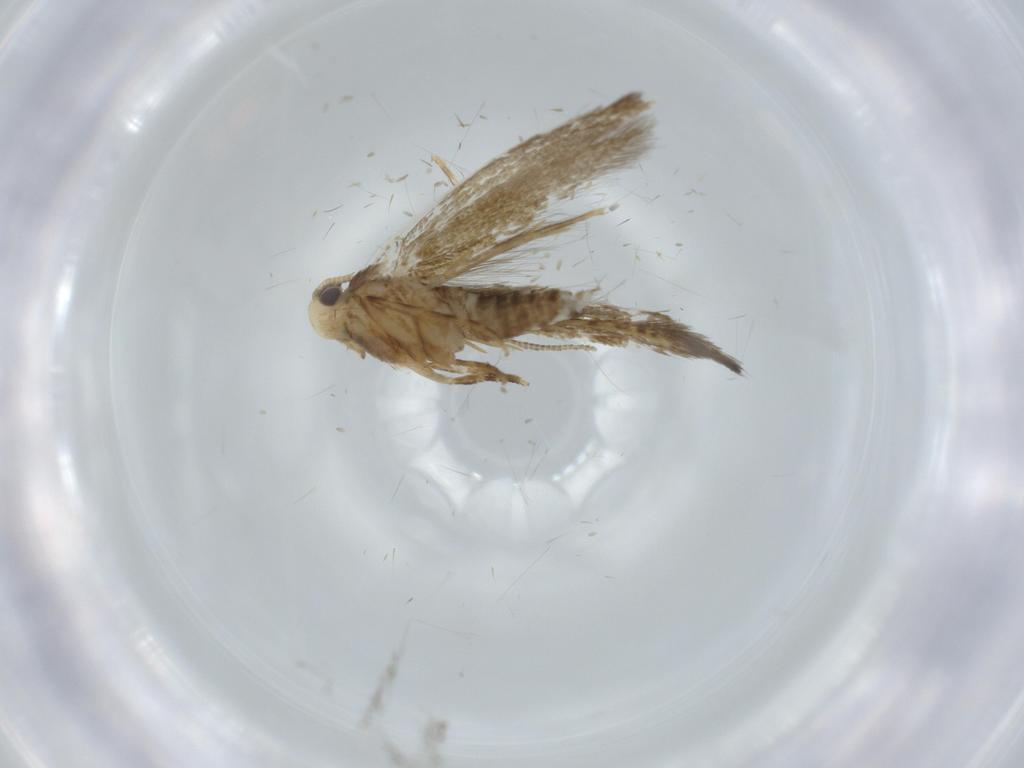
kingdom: Animalia
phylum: Arthropoda
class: Insecta
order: Lepidoptera
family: Tineidae
